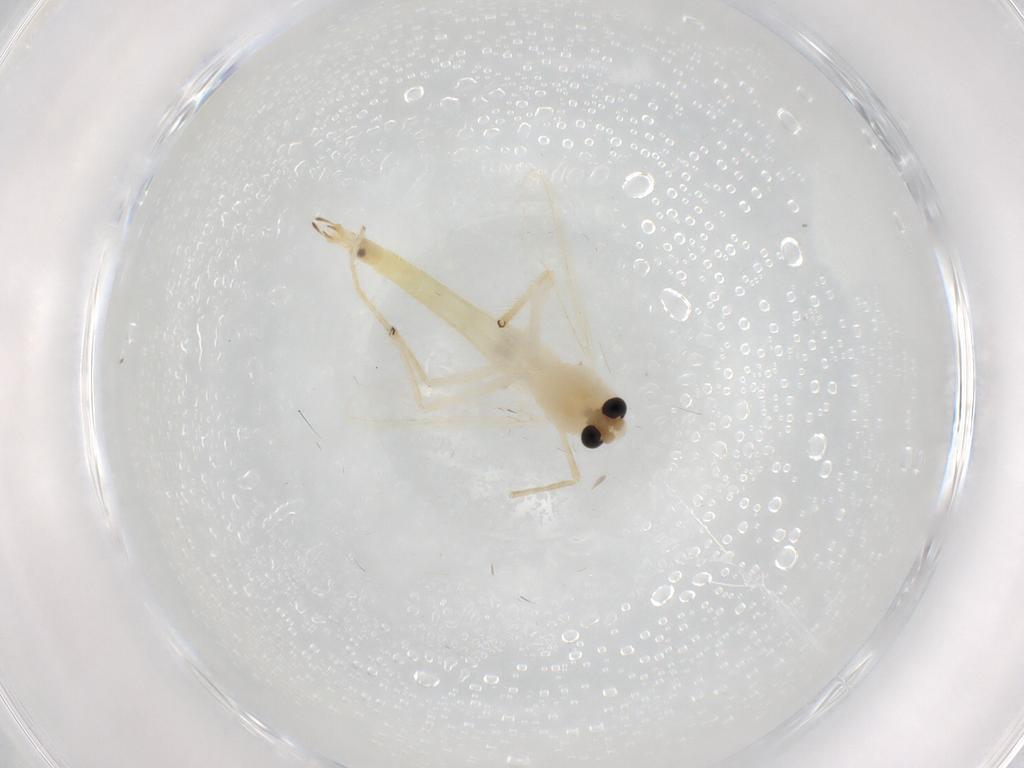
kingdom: Animalia
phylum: Arthropoda
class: Insecta
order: Diptera
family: Chironomidae
